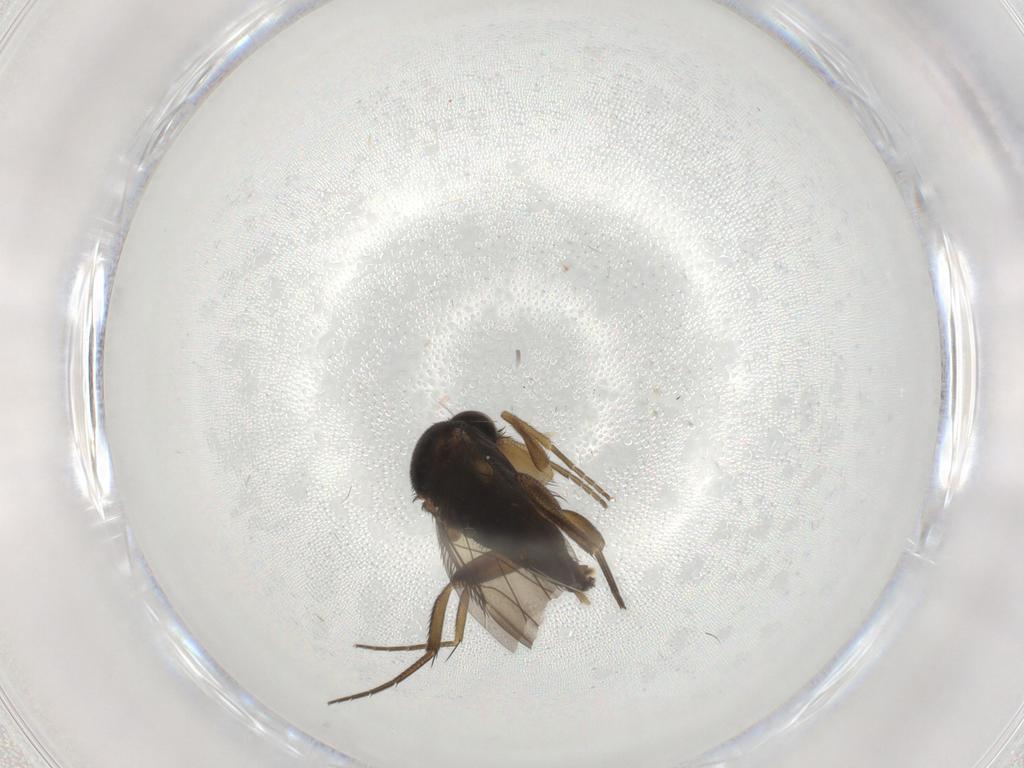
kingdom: Animalia
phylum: Arthropoda
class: Insecta
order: Diptera
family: Phoridae
